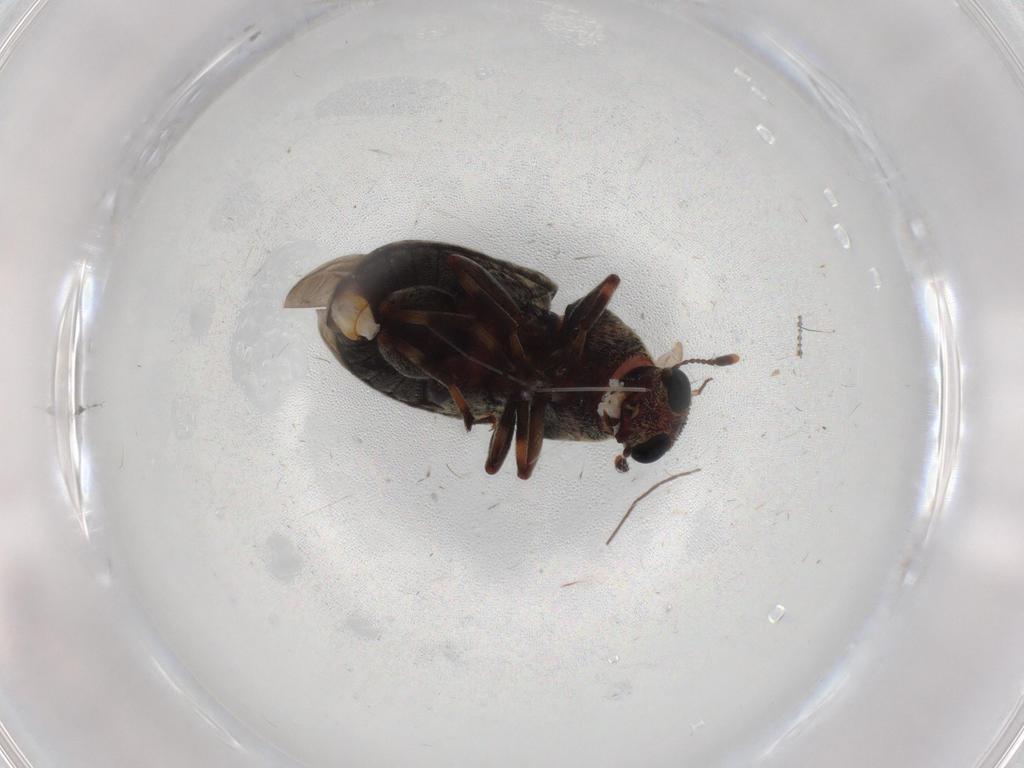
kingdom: Animalia
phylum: Arthropoda
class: Insecta
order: Coleoptera
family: Anthribidae
